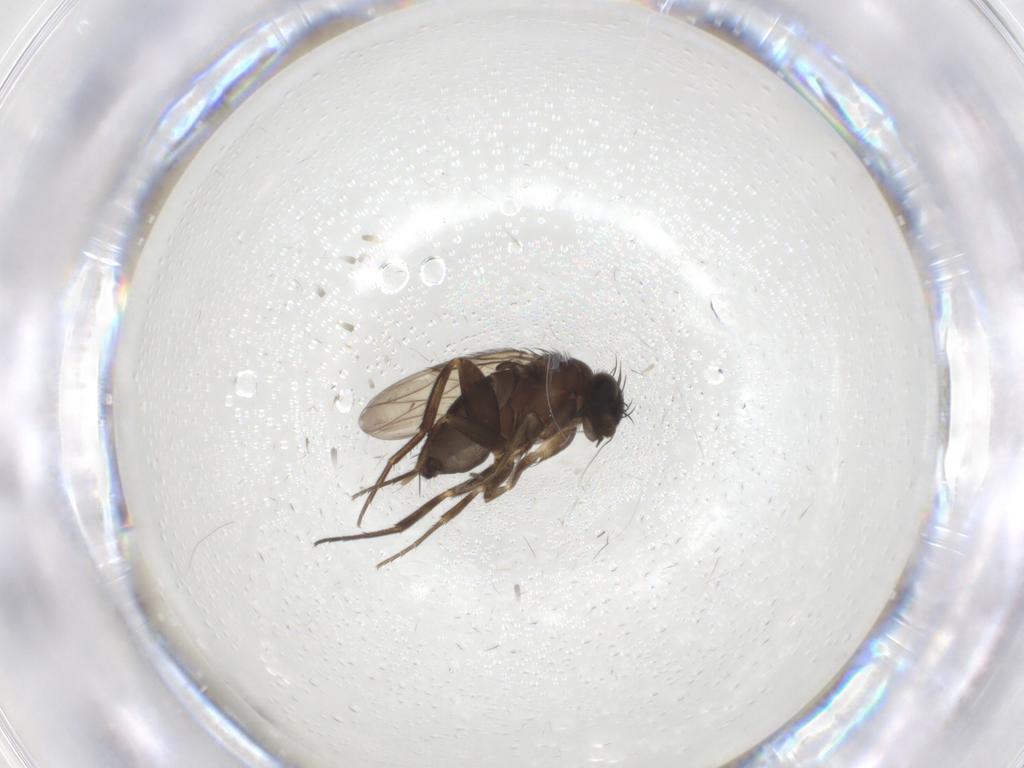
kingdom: Animalia
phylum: Arthropoda
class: Insecta
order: Diptera
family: Phoridae
